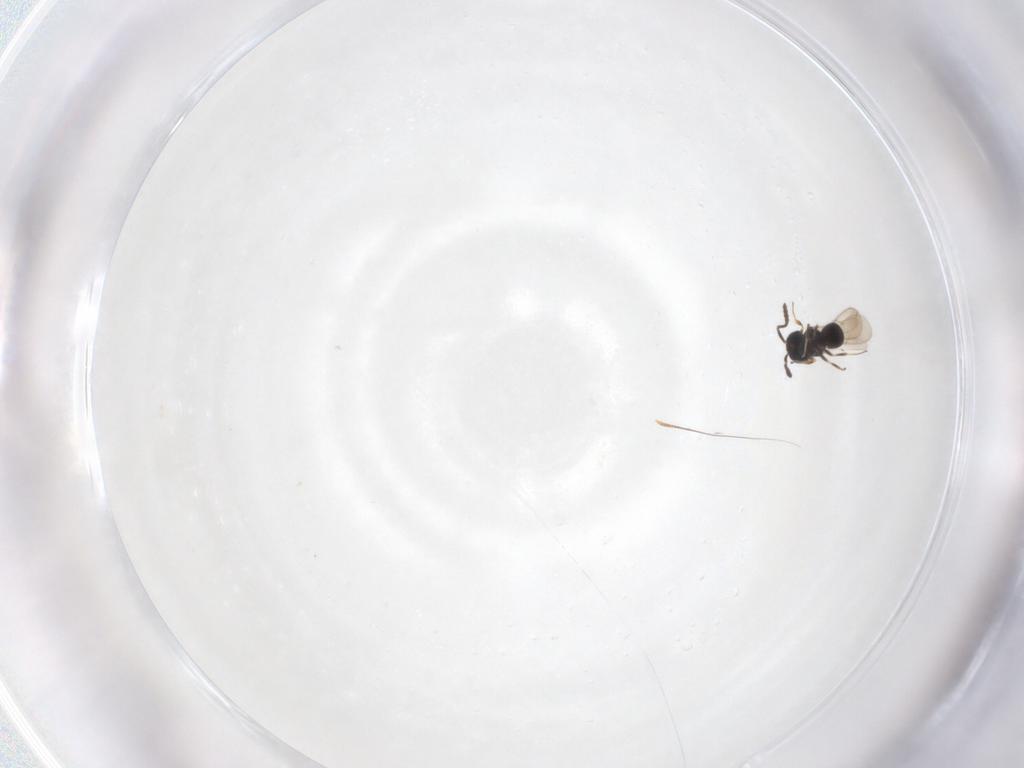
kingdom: Animalia
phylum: Arthropoda
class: Insecta
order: Hymenoptera
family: Scelionidae
